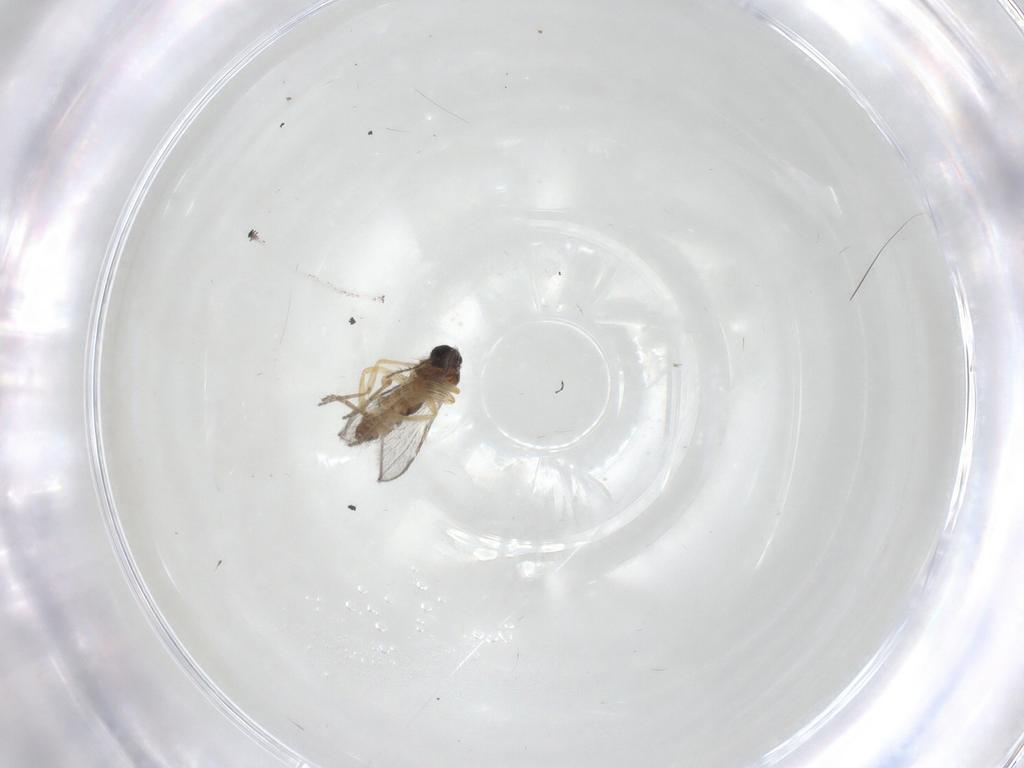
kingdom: Animalia
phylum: Arthropoda
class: Insecta
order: Diptera
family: Ceratopogonidae
